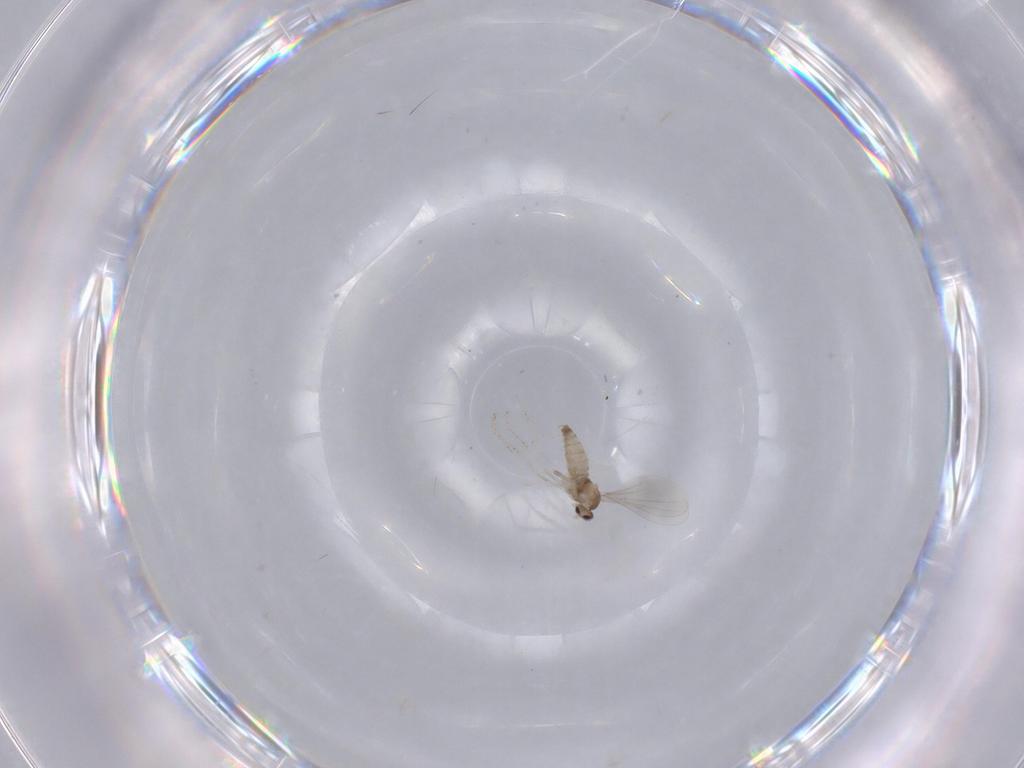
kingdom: Animalia
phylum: Arthropoda
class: Insecta
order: Diptera
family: Cecidomyiidae
